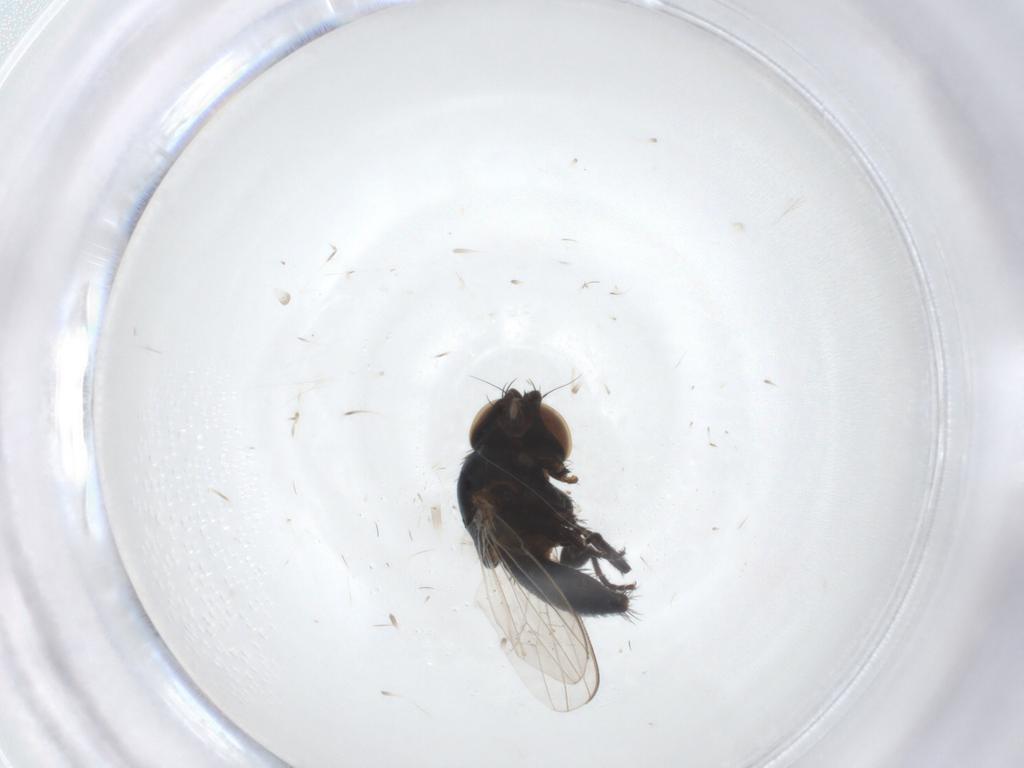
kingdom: Animalia
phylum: Arthropoda
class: Insecta
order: Diptera
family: Chloropidae
